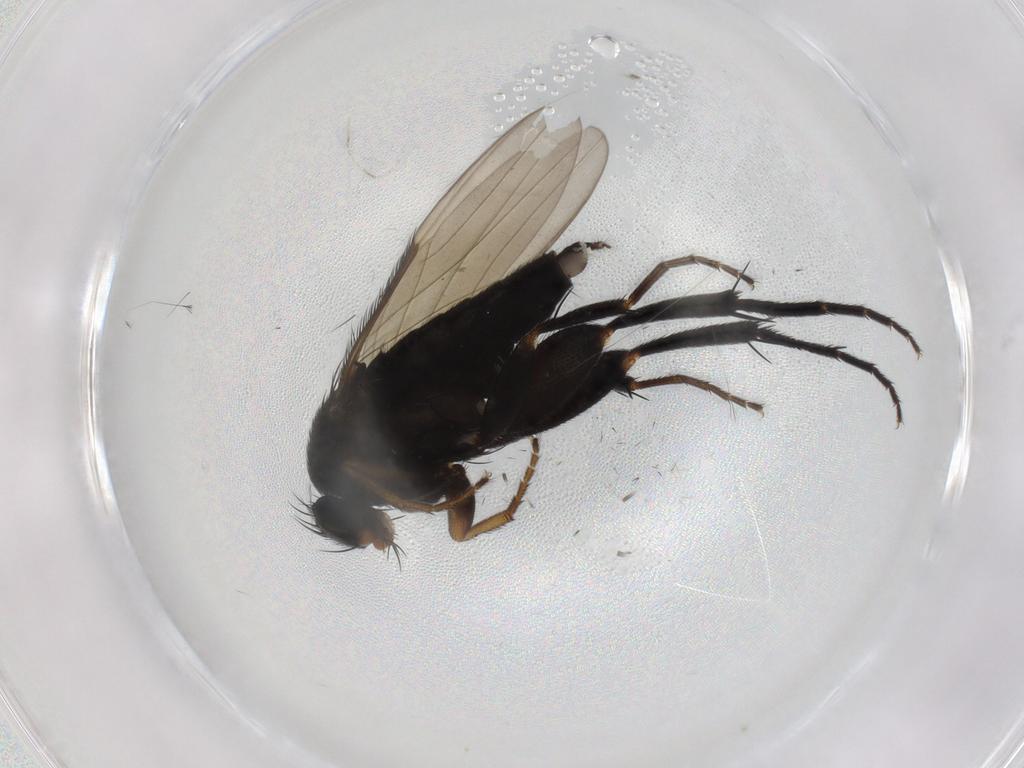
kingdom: Animalia
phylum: Arthropoda
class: Insecta
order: Diptera
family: Phoridae
